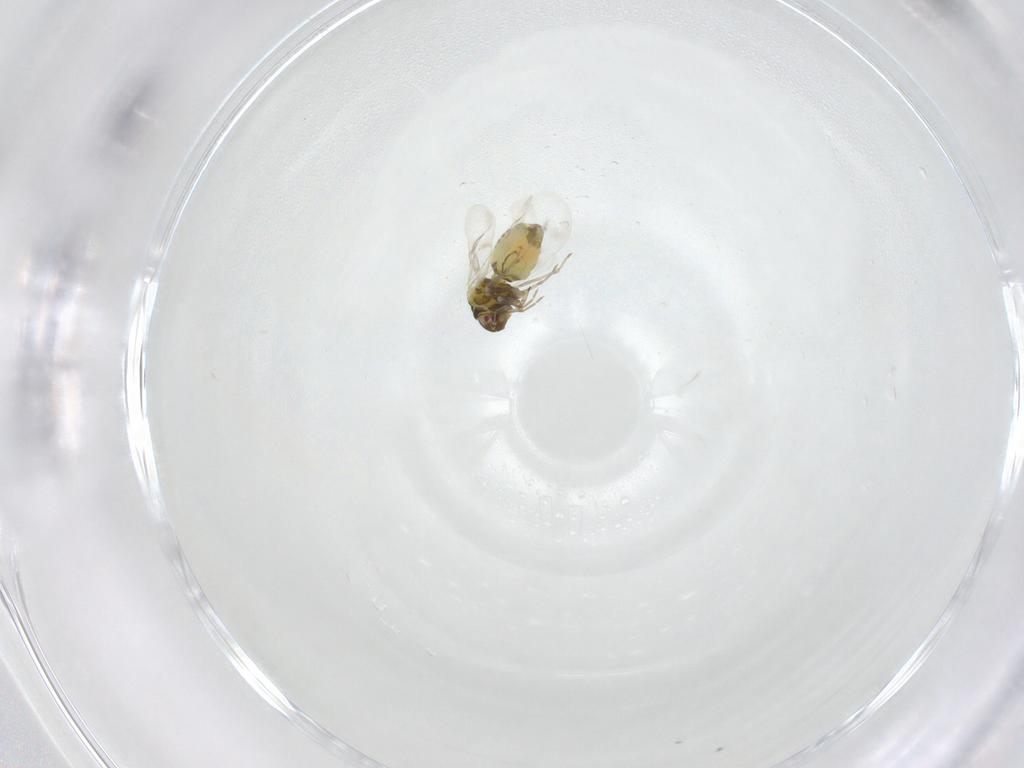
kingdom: Animalia
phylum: Arthropoda
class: Insecta
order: Hemiptera
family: Aleyrodidae
